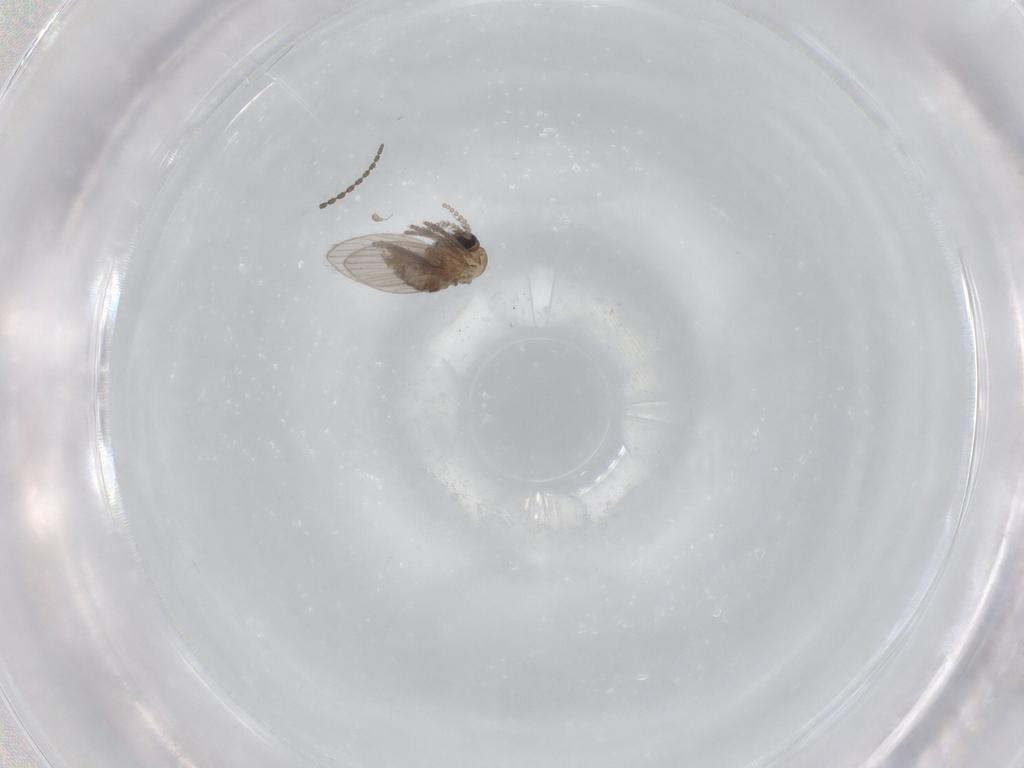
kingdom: Animalia
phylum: Arthropoda
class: Insecta
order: Diptera
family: Psychodidae
